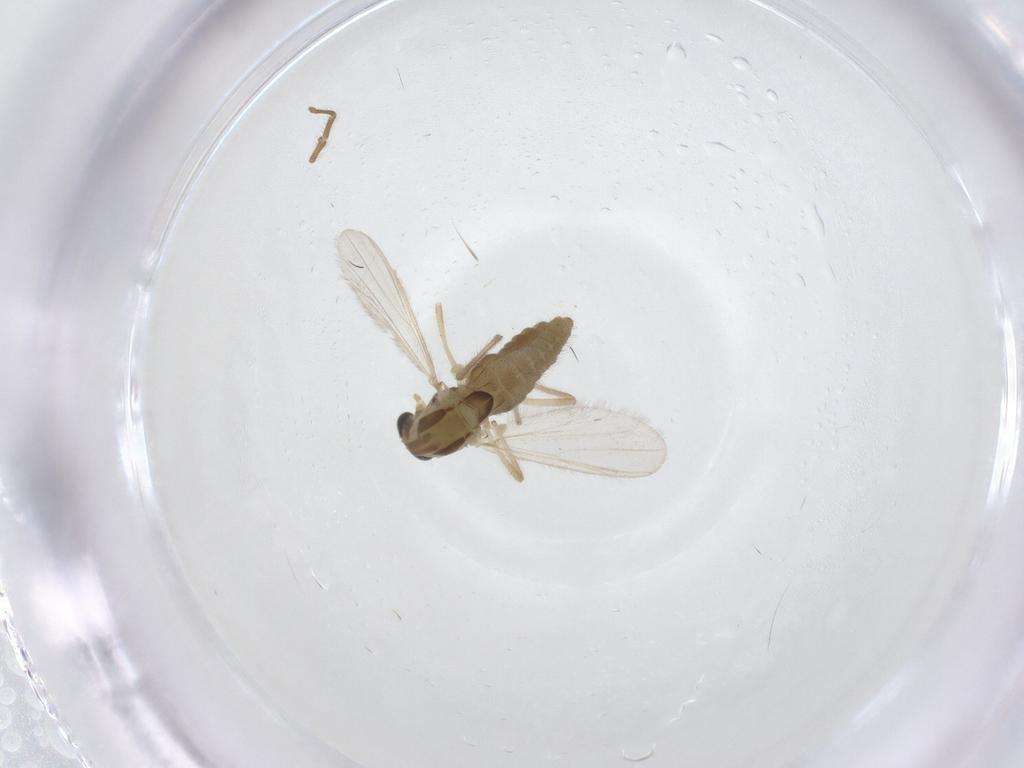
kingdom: Animalia
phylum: Arthropoda
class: Insecta
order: Diptera
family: Chironomidae
